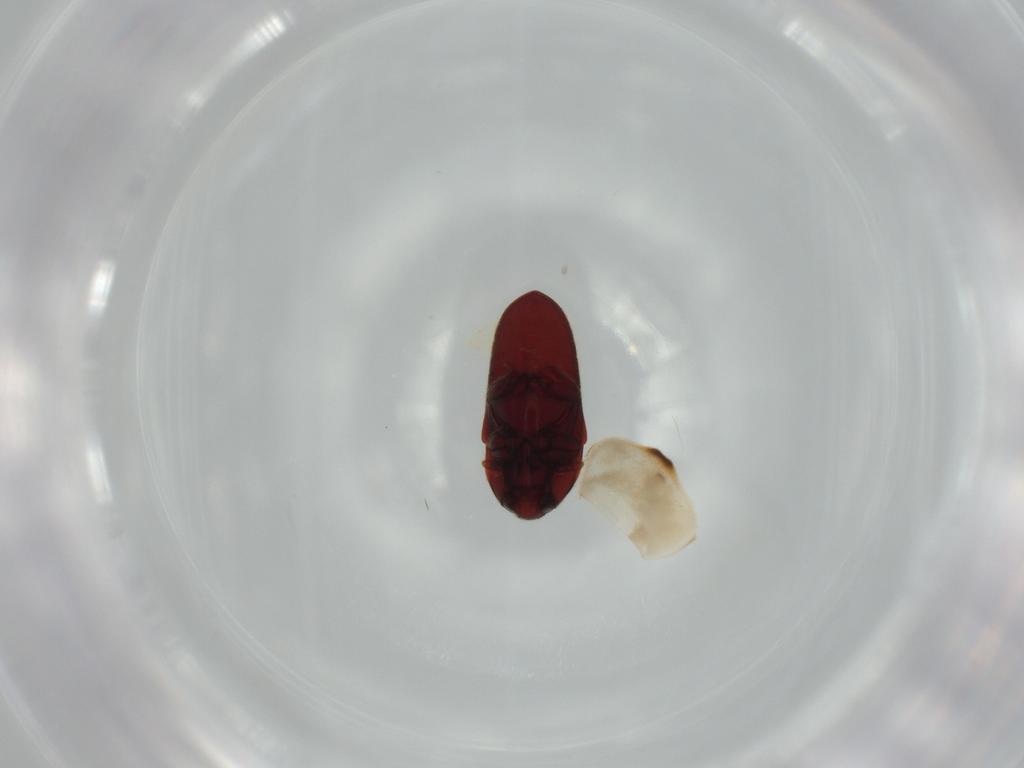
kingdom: Animalia
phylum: Arthropoda
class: Insecta
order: Coleoptera
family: Coccinellidae
